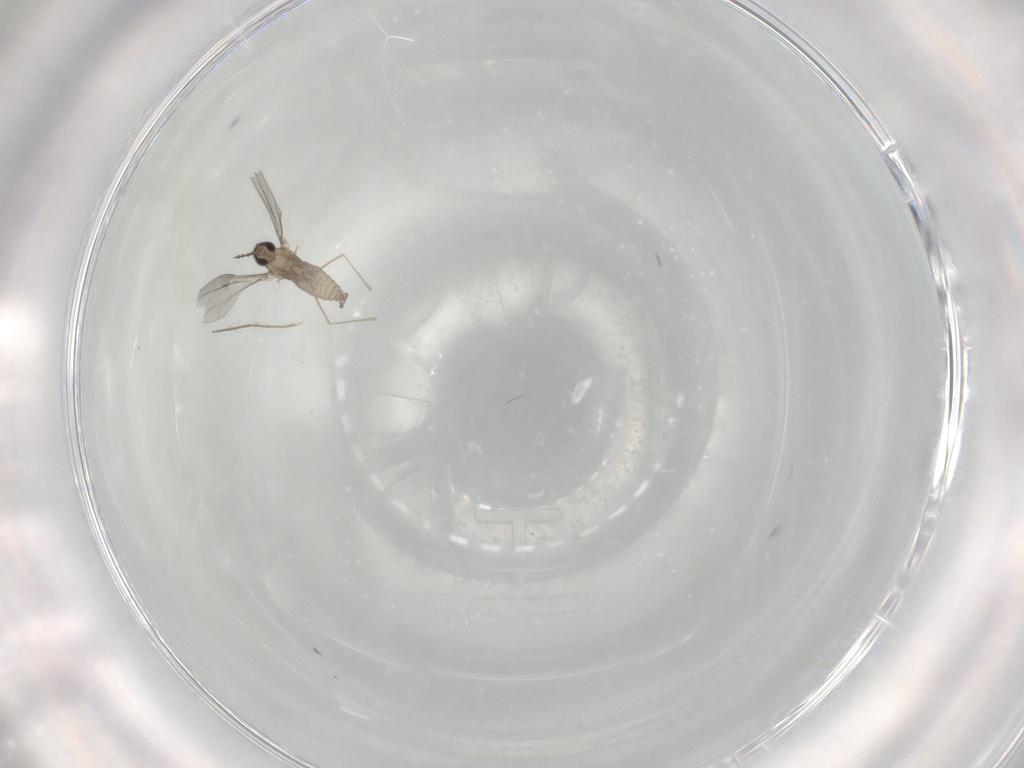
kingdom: Animalia
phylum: Arthropoda
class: Insecta
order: Diptera
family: Cecidomyiidae
